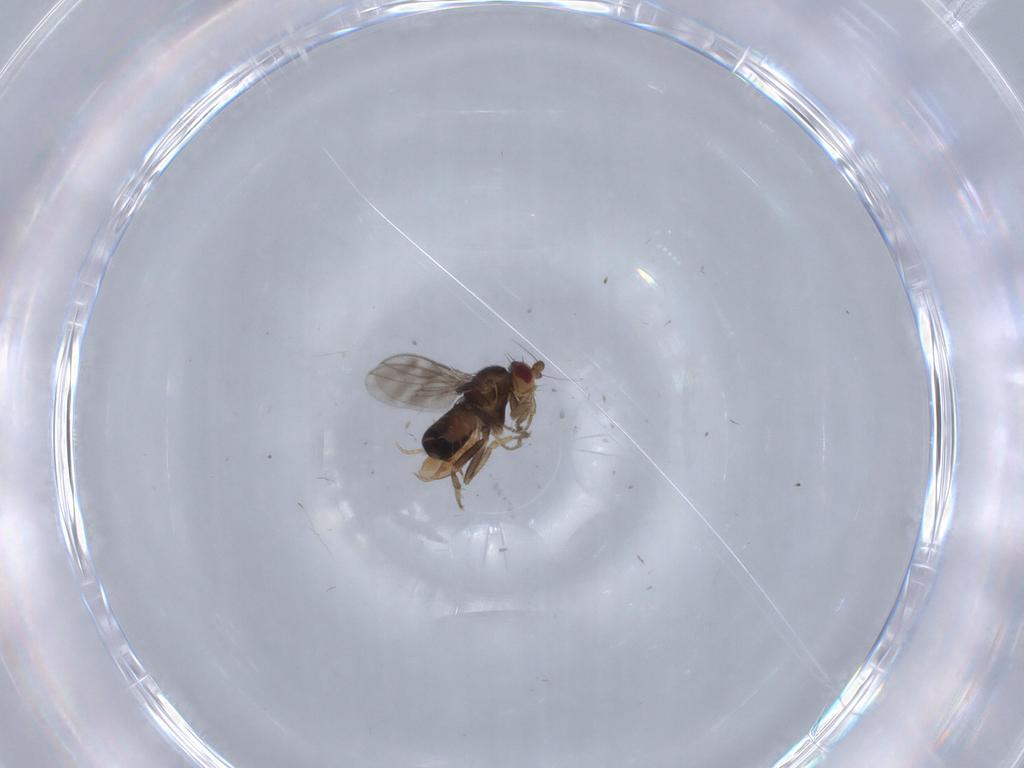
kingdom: Animalia
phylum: Arthropoda
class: Insecta
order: Diptera
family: Sphaeroceridae
